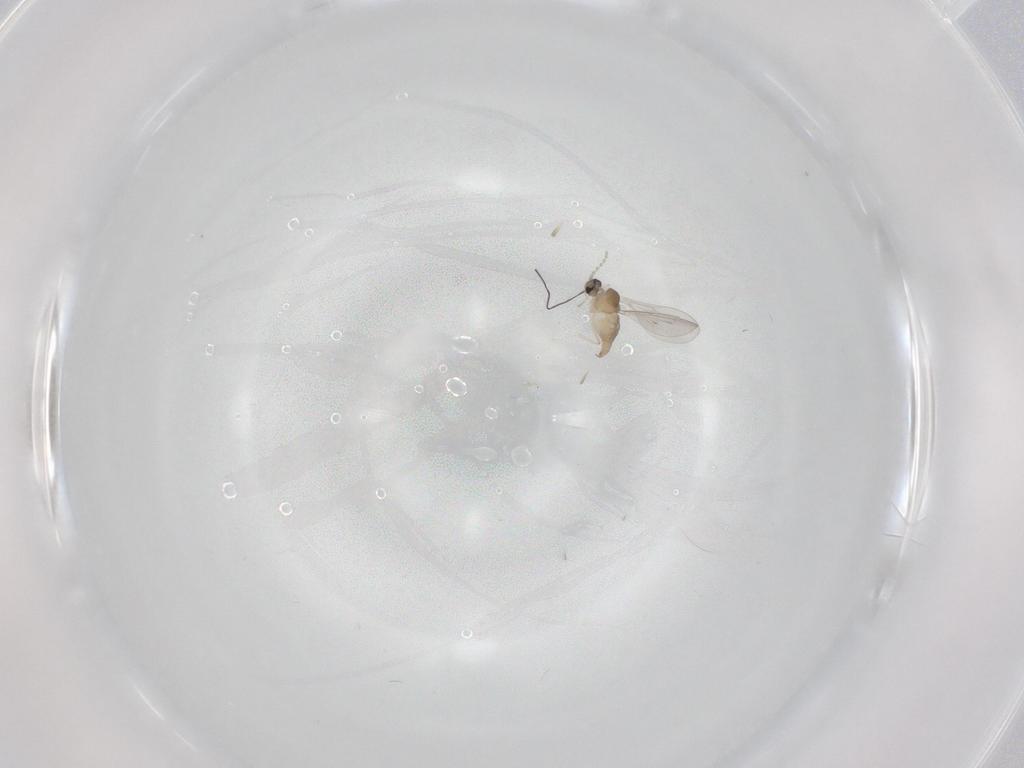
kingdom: Animalia
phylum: Arthropoda
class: Insecta
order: Diptera
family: Cecidomyiidae
